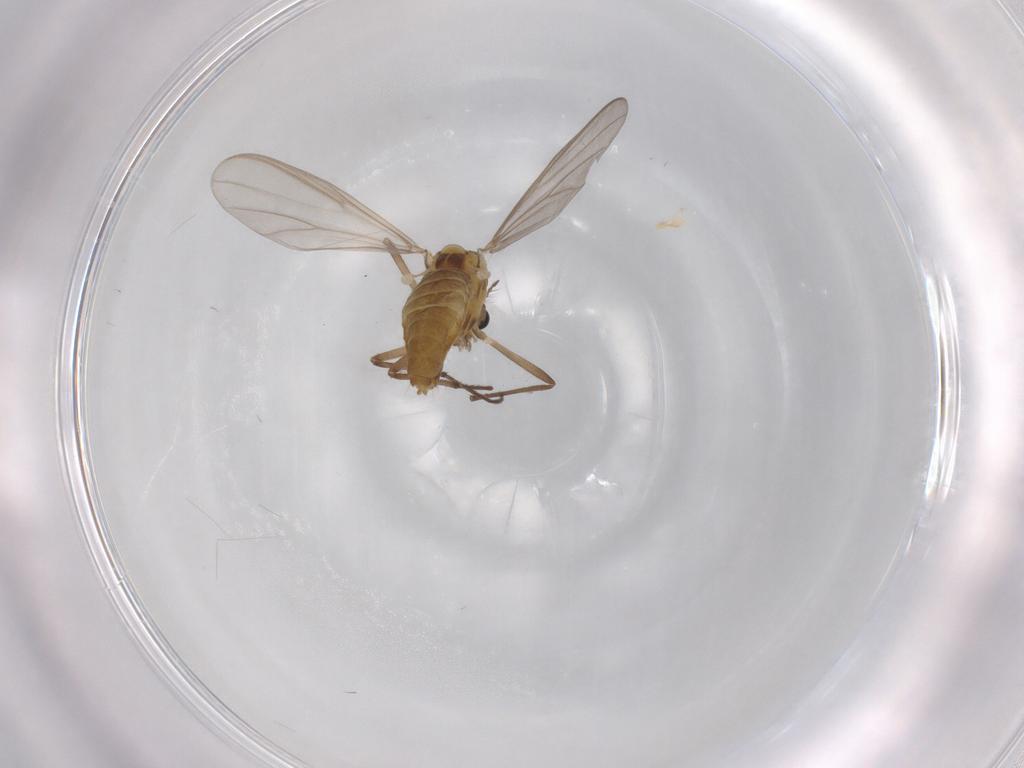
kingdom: Animalia
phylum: Arthropoda
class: Insecta
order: Diptera
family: Chironomidae
